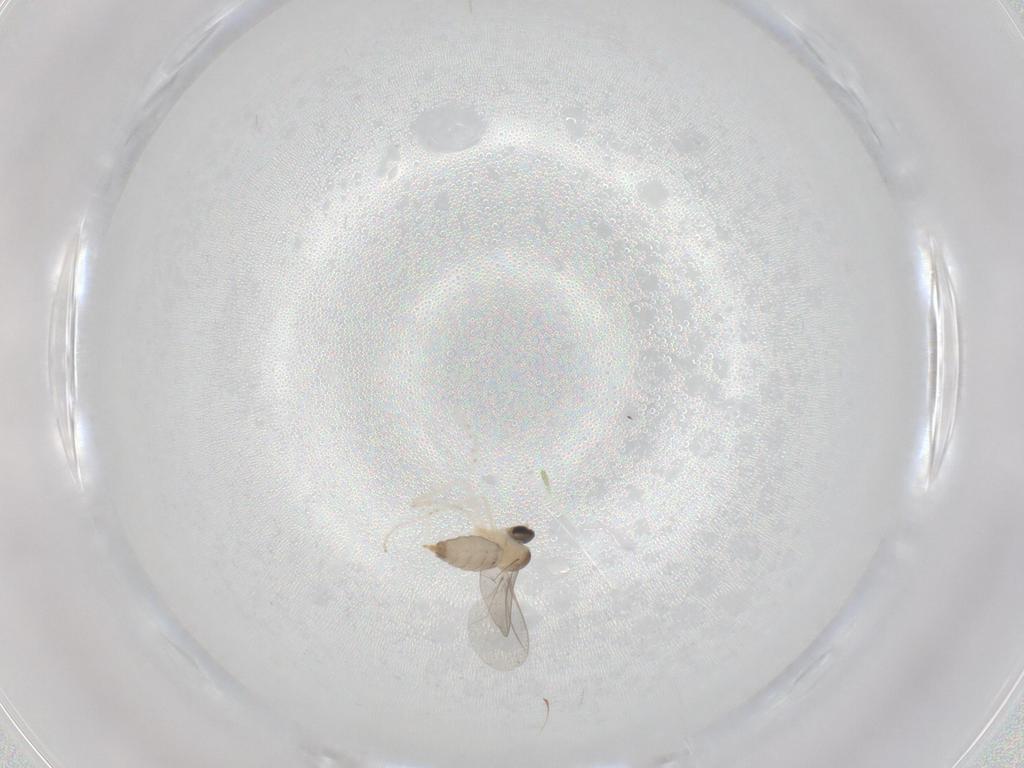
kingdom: Animalia
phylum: Arthropoda
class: Insecta
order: Diptera
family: Cecidomyiidae
